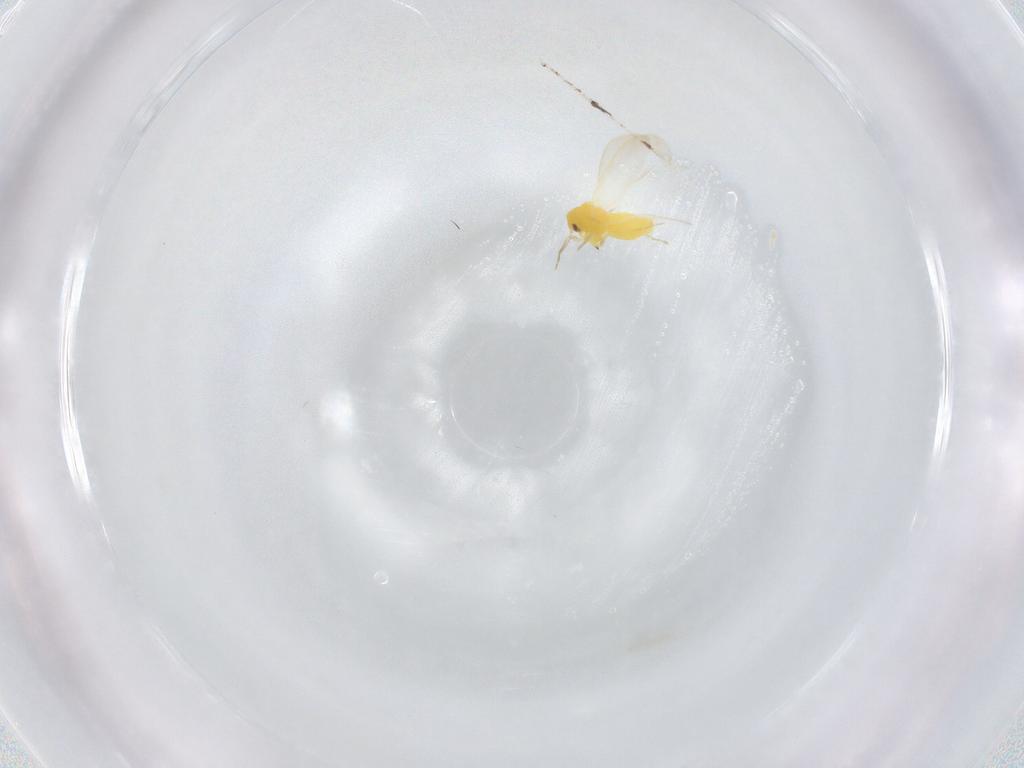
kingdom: Animalia
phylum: Arthropoda
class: Insecta
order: Hemiptera
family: Aleyrodidae
